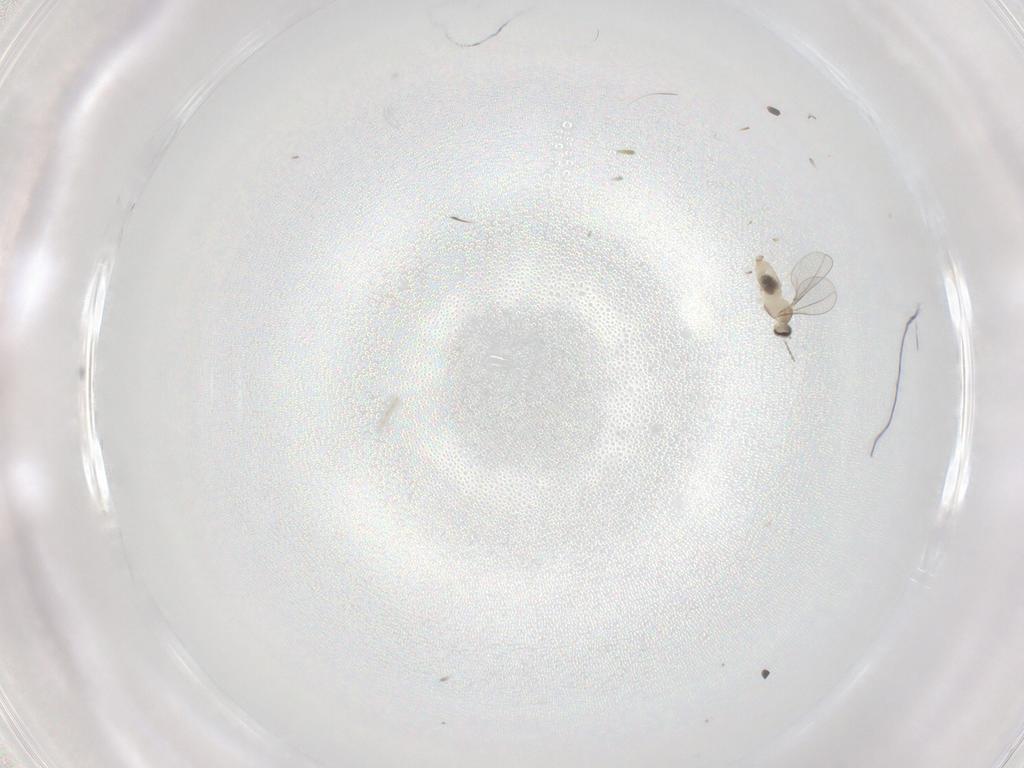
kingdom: Animalia
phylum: Arthropoda
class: Insecta
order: Diptera
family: Cecidomyiidae
